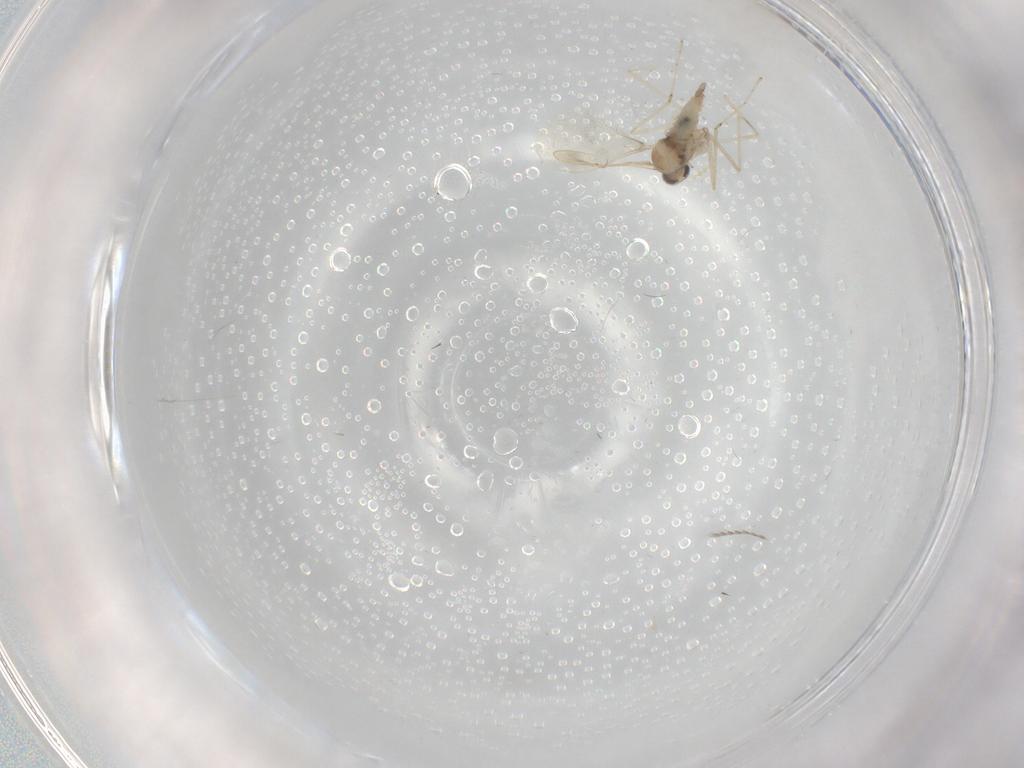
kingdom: Animalia
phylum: Arthropoda
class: Insecta
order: Diptera
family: Cecidomyiidae
